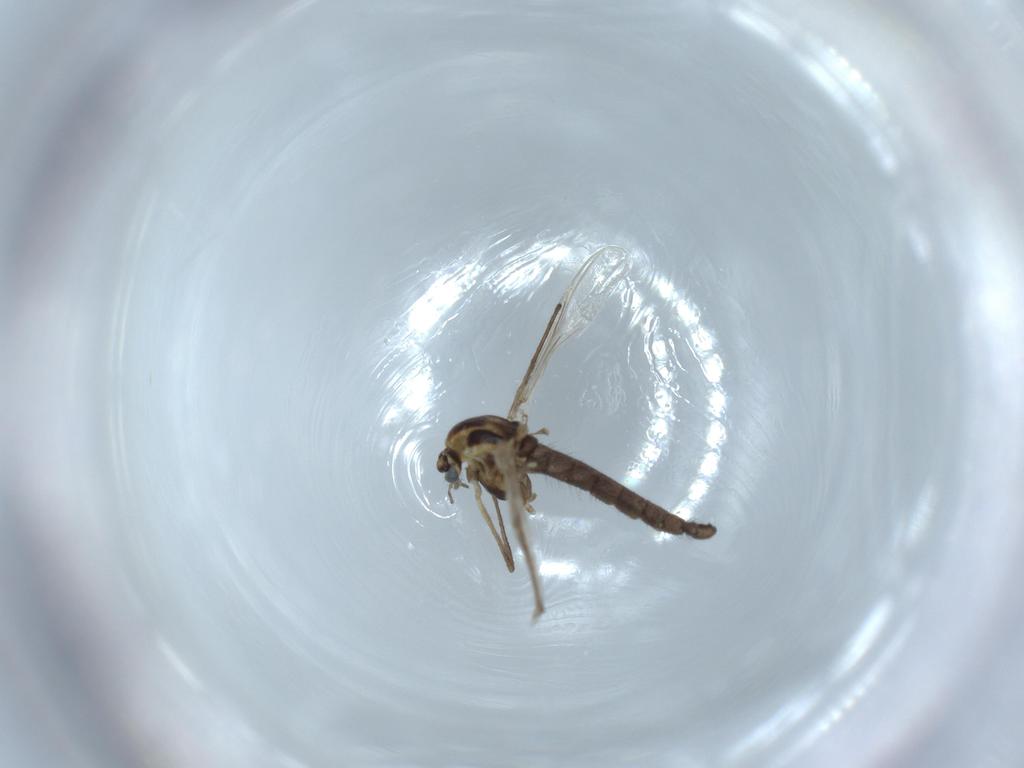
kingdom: Animalia
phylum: Arthropoda
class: Insecta
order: Diptera
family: Chironomidae
